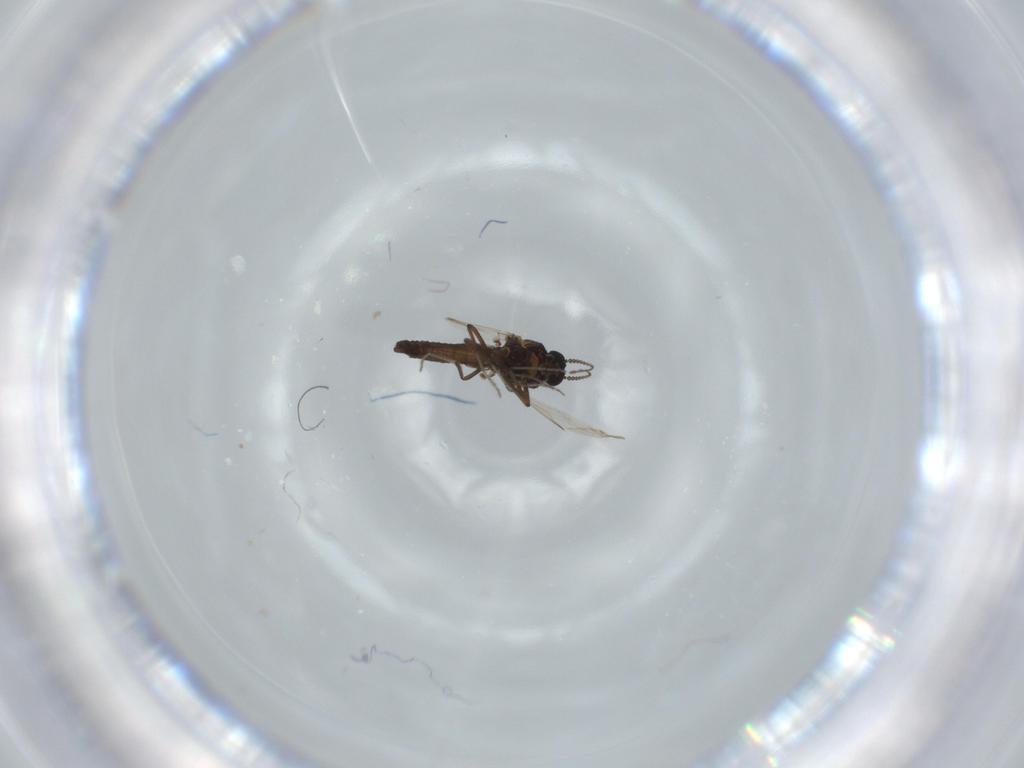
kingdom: Animalia
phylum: Arthropoda
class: Insecta
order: Diptera
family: Ceratopogonidae
